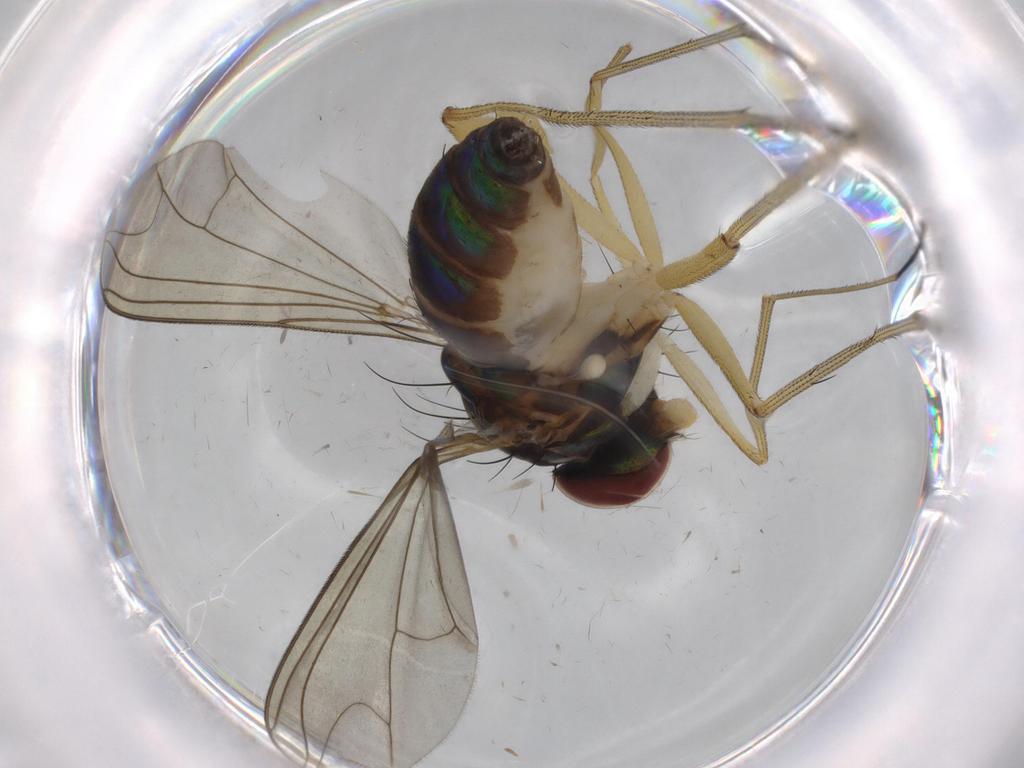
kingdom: Animalia
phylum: Arthropoda
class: Insecta
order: Diptera
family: Dolichopodidae
